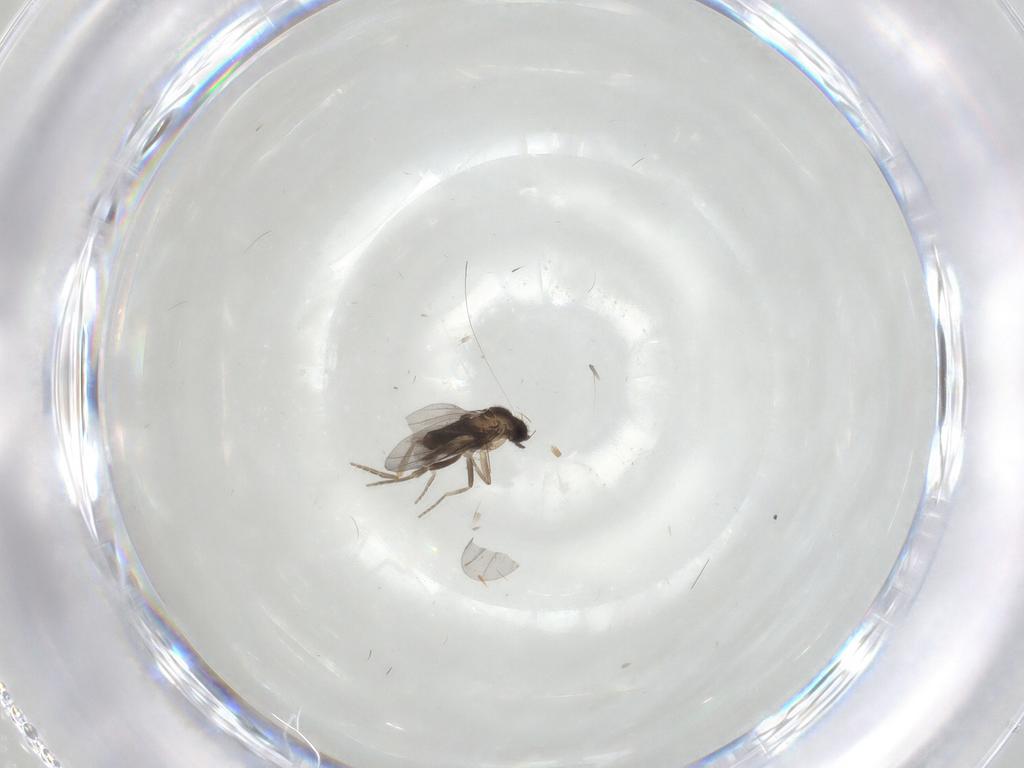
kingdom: Animalia
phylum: Arthropoda
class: Insecta
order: Diptera
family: Chironomidae
